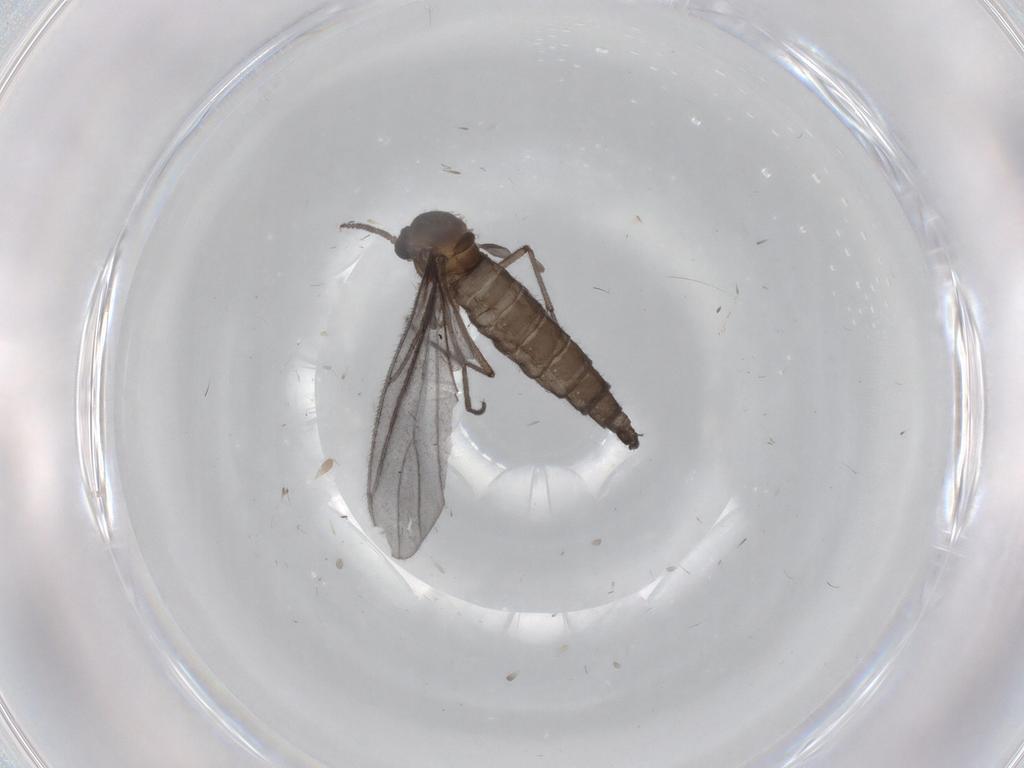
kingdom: Animalia
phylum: Arthropoda
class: Insecta
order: Diptera
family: Sciaridae
